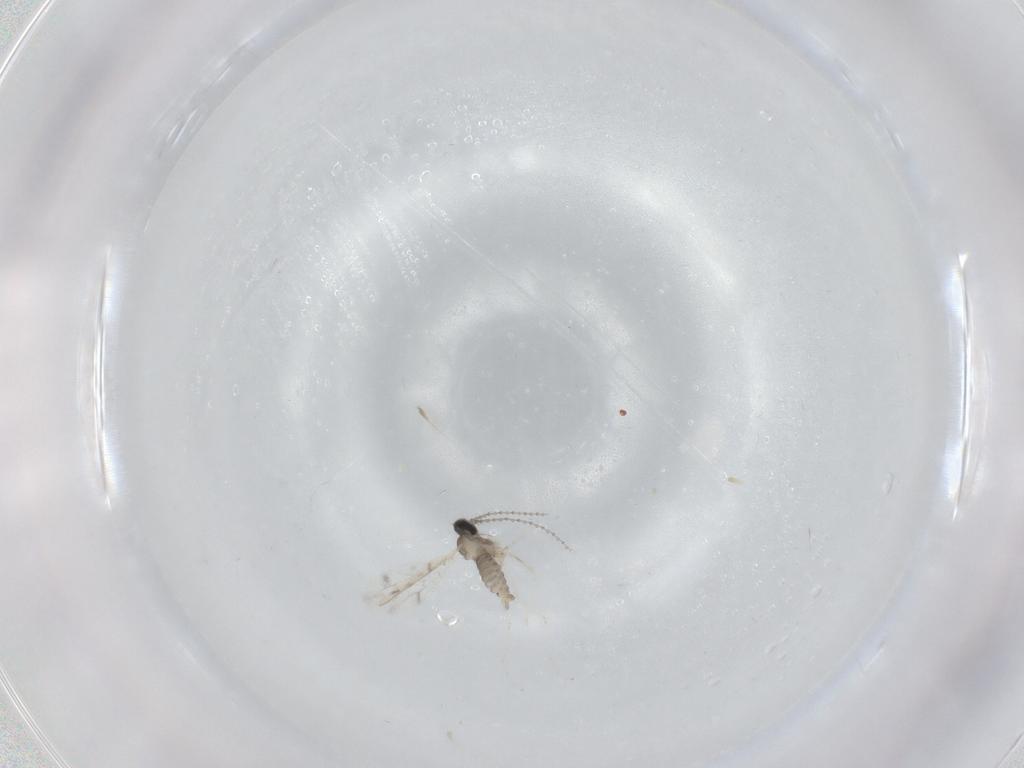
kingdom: Animalia
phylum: Arthropoda
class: Insecta
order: Diptera
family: Cecidomyiidae
